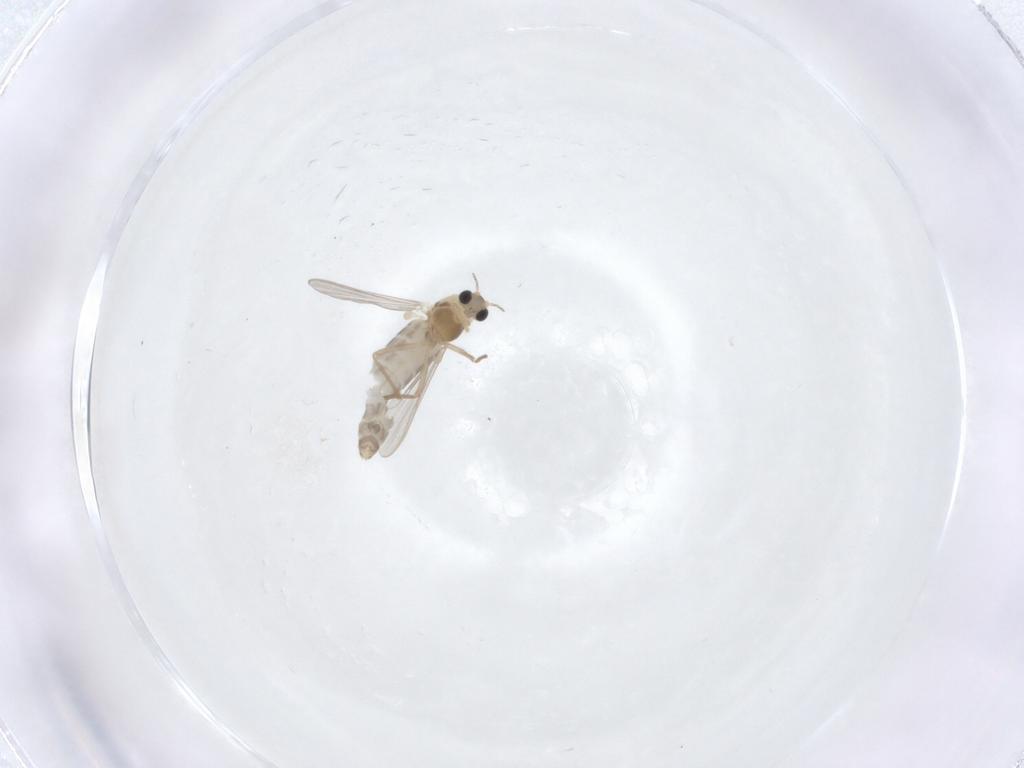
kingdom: Animalia
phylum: Arthropoda
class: Insecta
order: Diptera
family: Chironomidae
